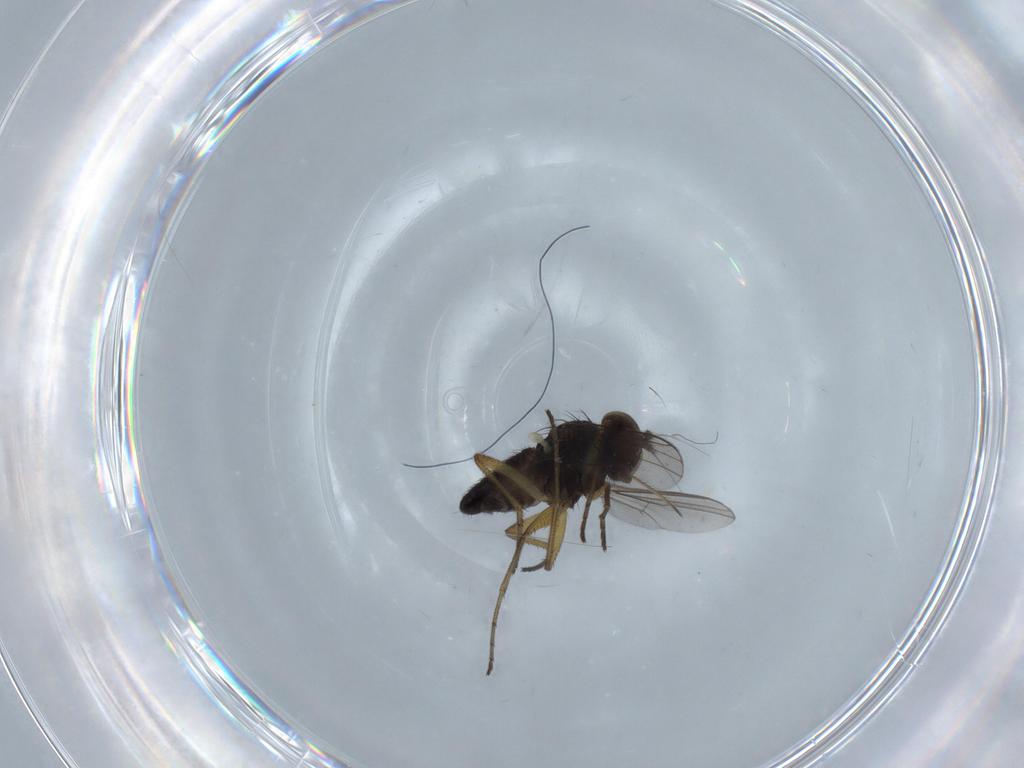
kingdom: Animalia
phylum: Arthropoda
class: Insecta
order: Diptera
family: Dolichopodidae
